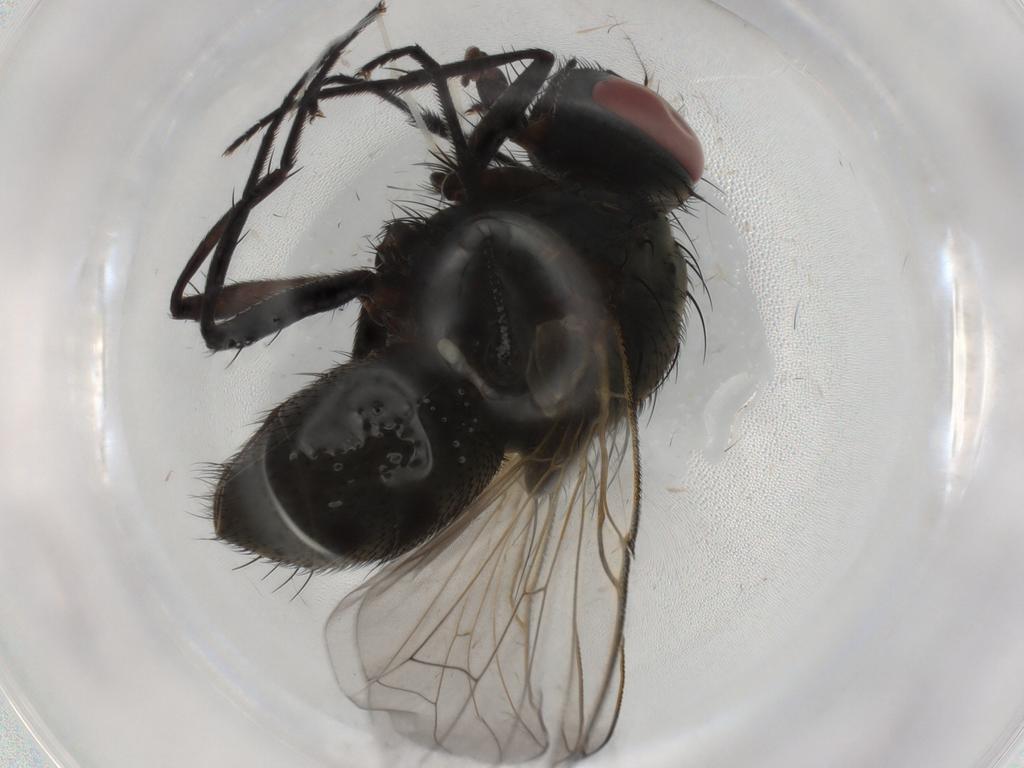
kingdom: Animalia
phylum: Arthropoda
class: Insecta
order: Diptera
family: Muscidae
